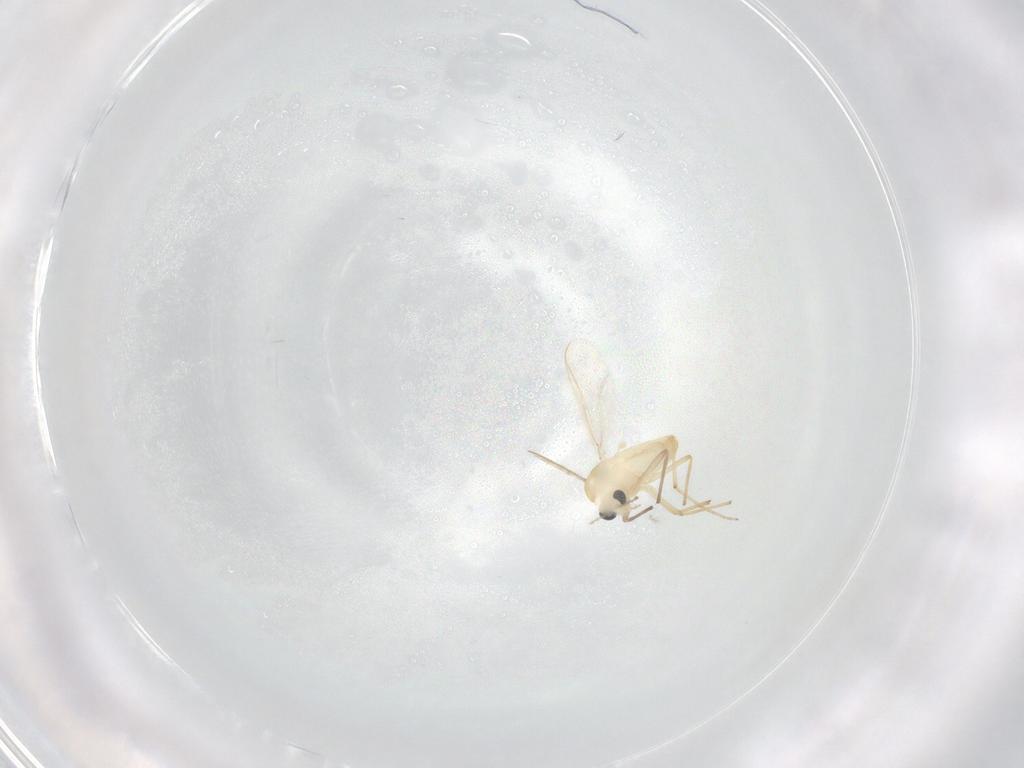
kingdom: Animalia
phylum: Arthropoda
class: Insecta
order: Diptera
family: Chironomidae
